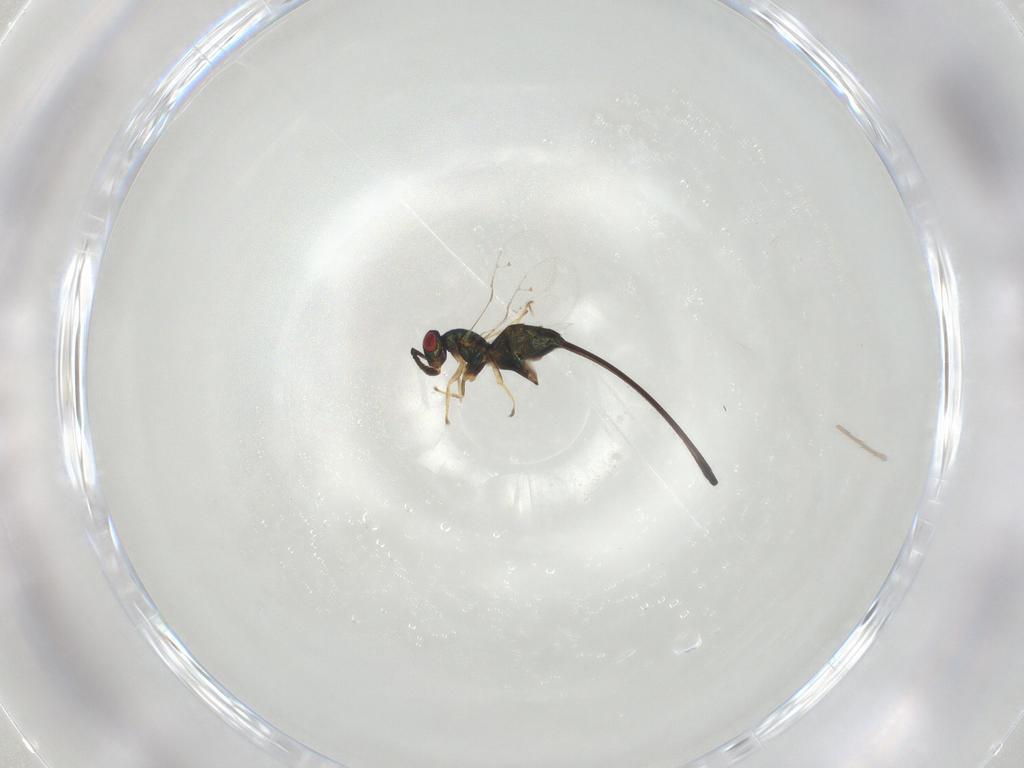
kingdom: Animalia
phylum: Arthropoda
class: Insecta
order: Hymenoptera
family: Pteromalidae
